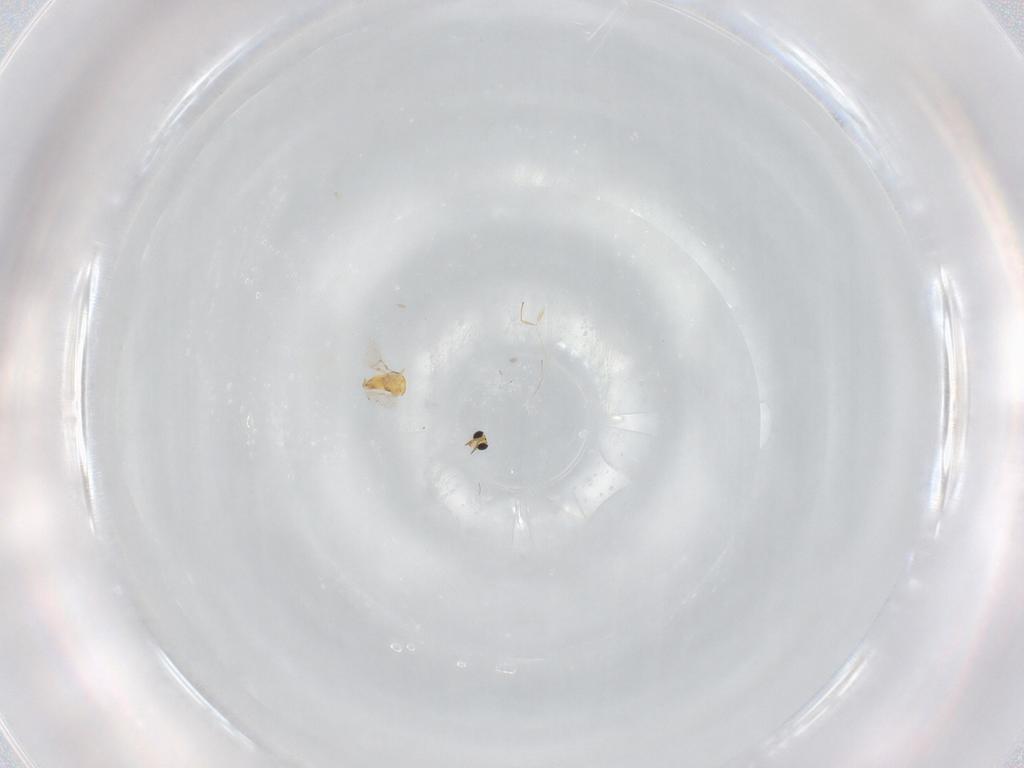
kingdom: Animalia
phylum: Arthropoda
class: Insecta
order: Hymenoptera
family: Trichogrammatidae
